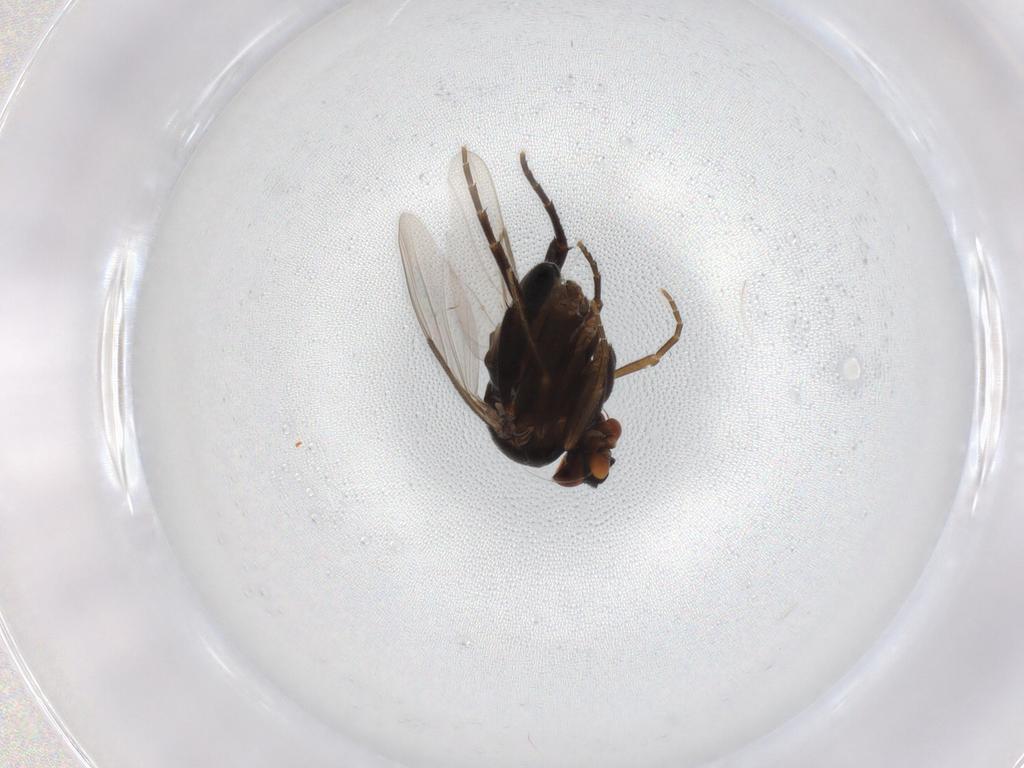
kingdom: Animalia
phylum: Arthropoda
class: Insecta
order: Diptera
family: Phoridae
